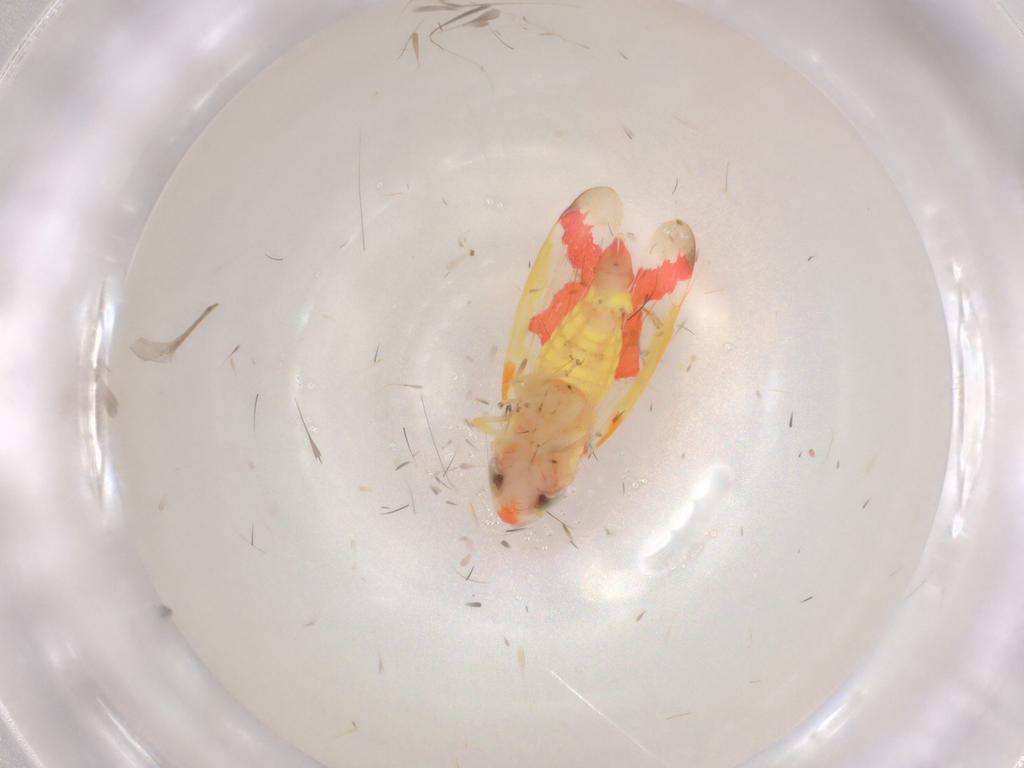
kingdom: Animalia
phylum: Arthropoda
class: Insecta
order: Hemiptera
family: Cicadellidae
